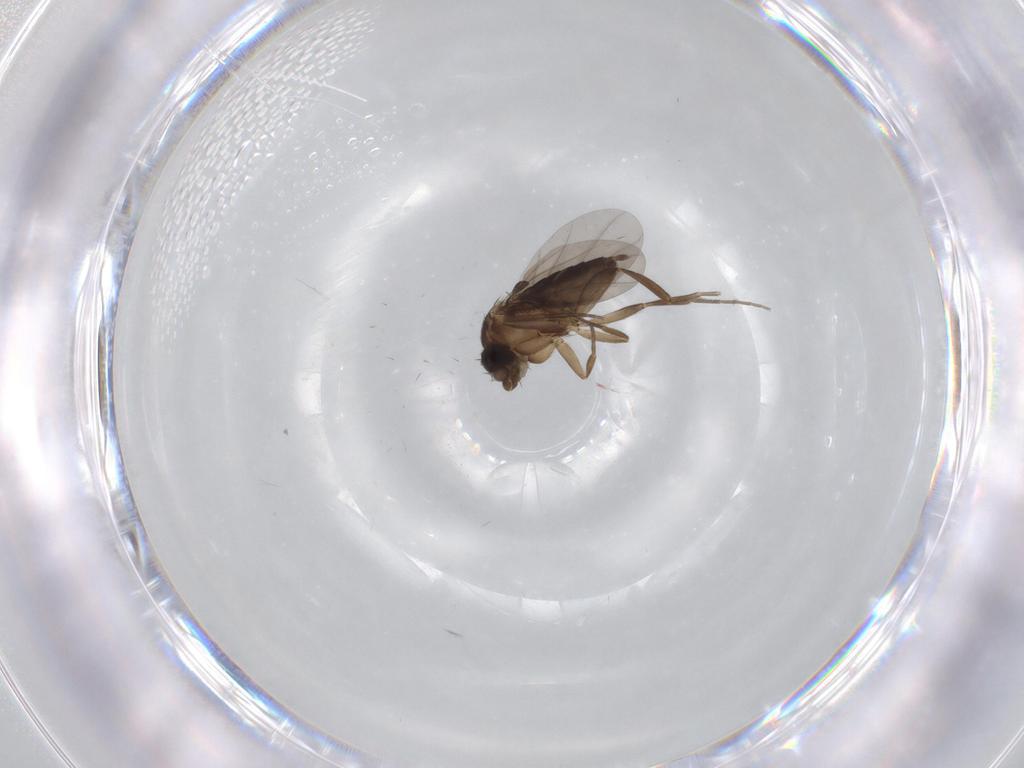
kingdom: Animalia
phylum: Arthropoda
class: Insecta
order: Diptera
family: Phoridae
